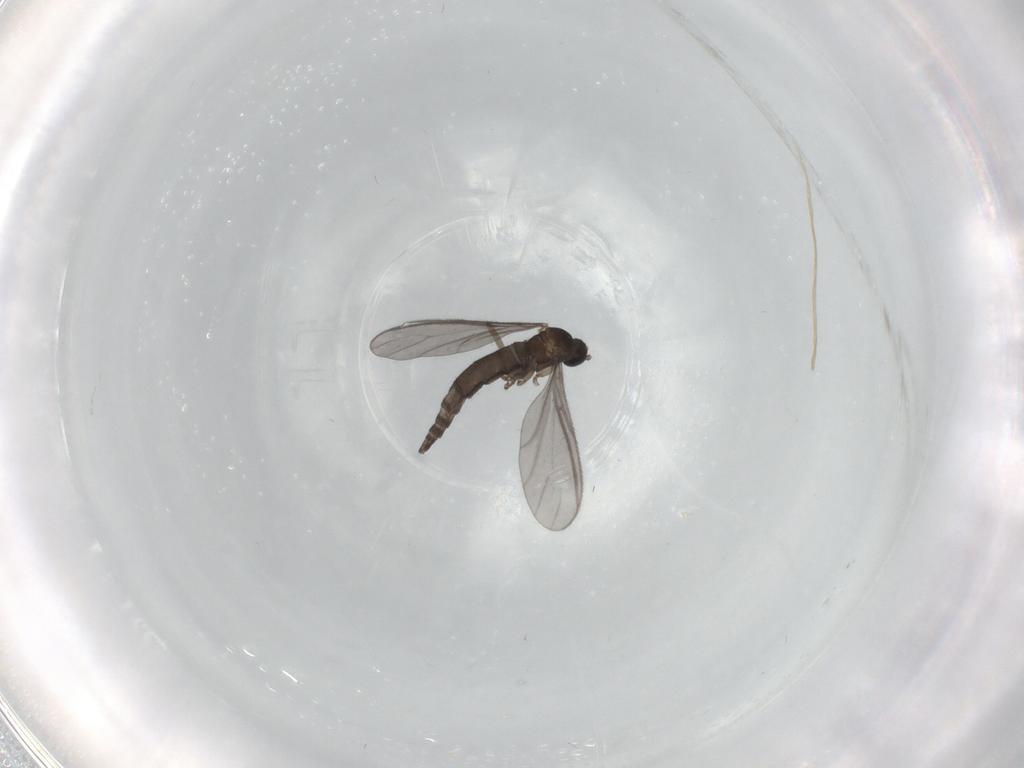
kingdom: Animalia
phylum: Arthropoda
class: Insecta
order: Diptera
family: Sciaridae
